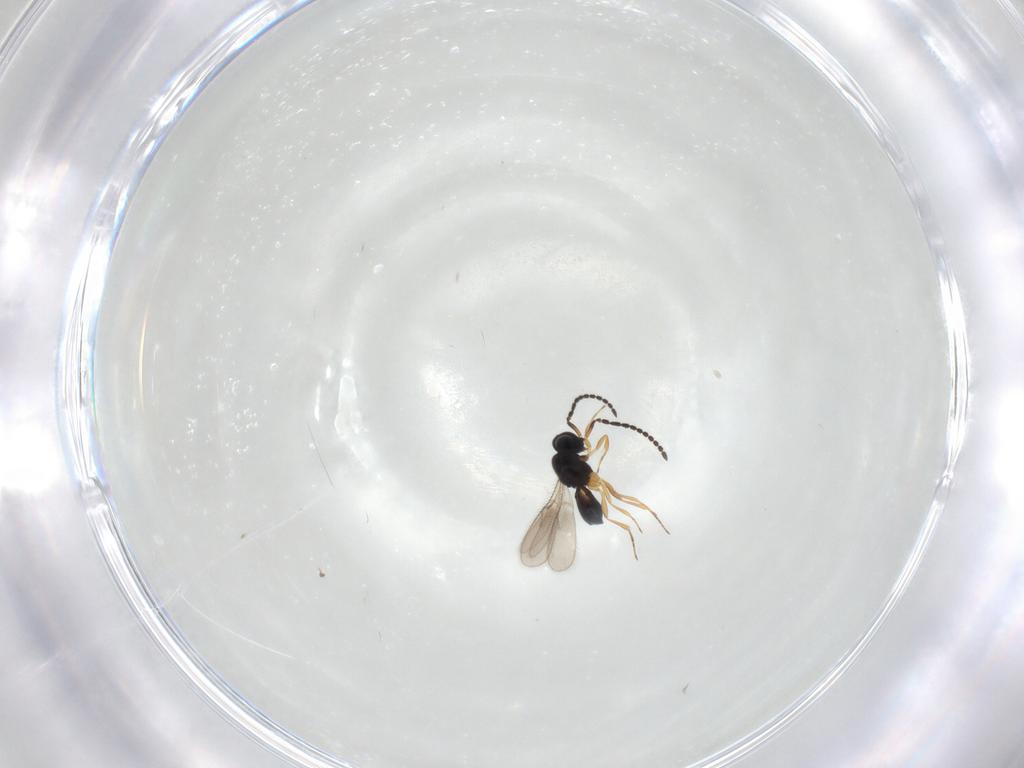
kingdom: Animalia
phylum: Arthropoda
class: Insecta
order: Hymenoptera
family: Scelionidae
